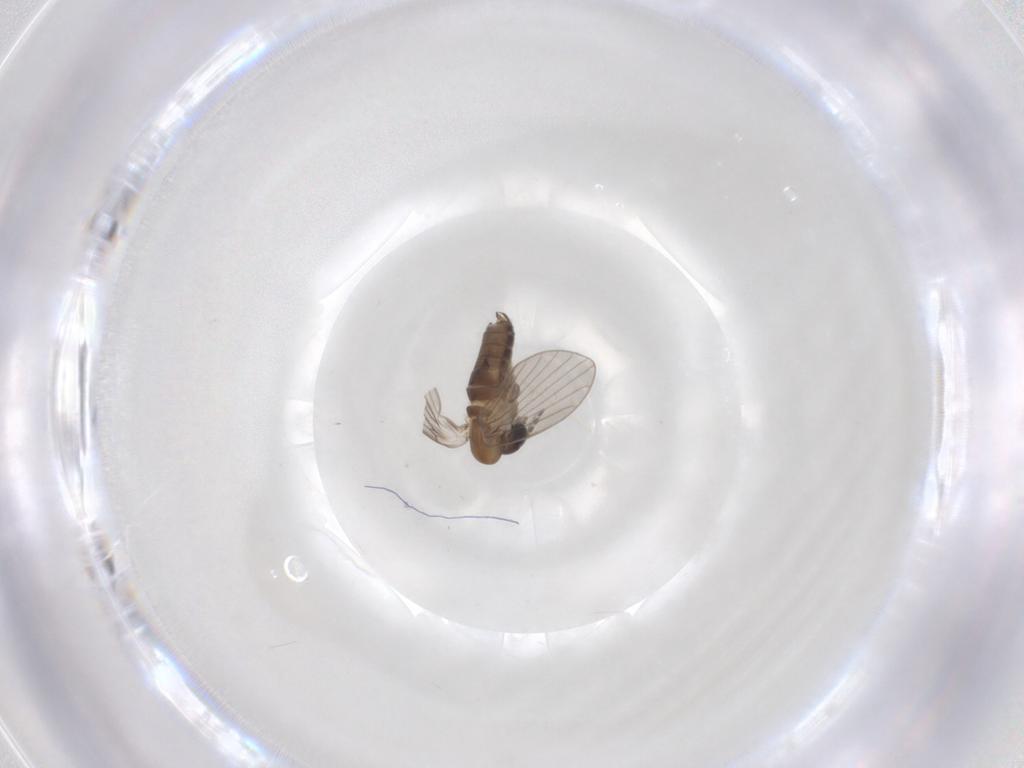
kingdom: Animalia
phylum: Arthropoda
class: Insecta
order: Diptera
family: Psychodidae
